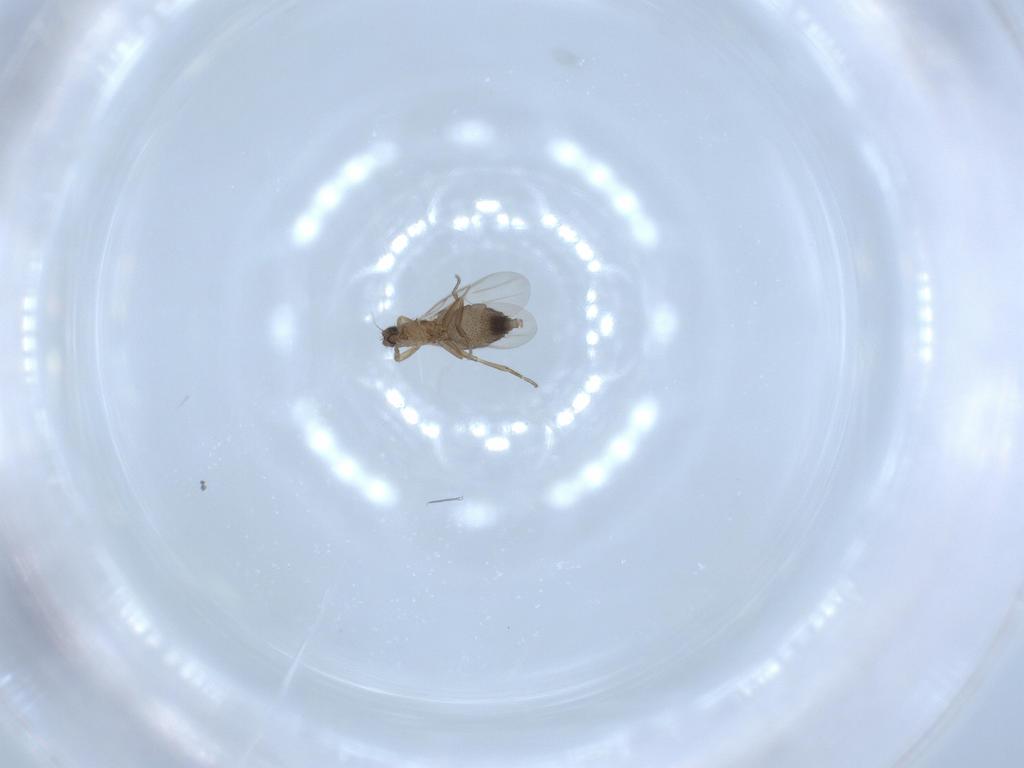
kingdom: Animalia
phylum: Arthropoda
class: Insecta
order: Diptera
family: Phoridae
